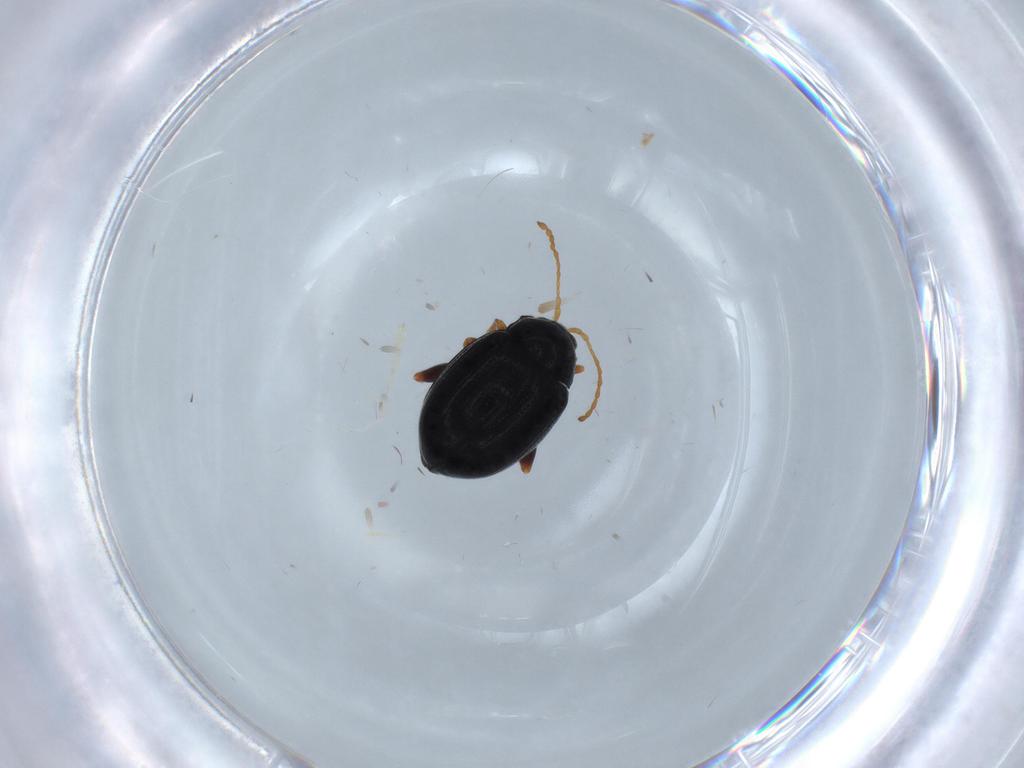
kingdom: Animalia
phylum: Arthropoda
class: Insecta
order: Coleoptera
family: Chrysomelidae
